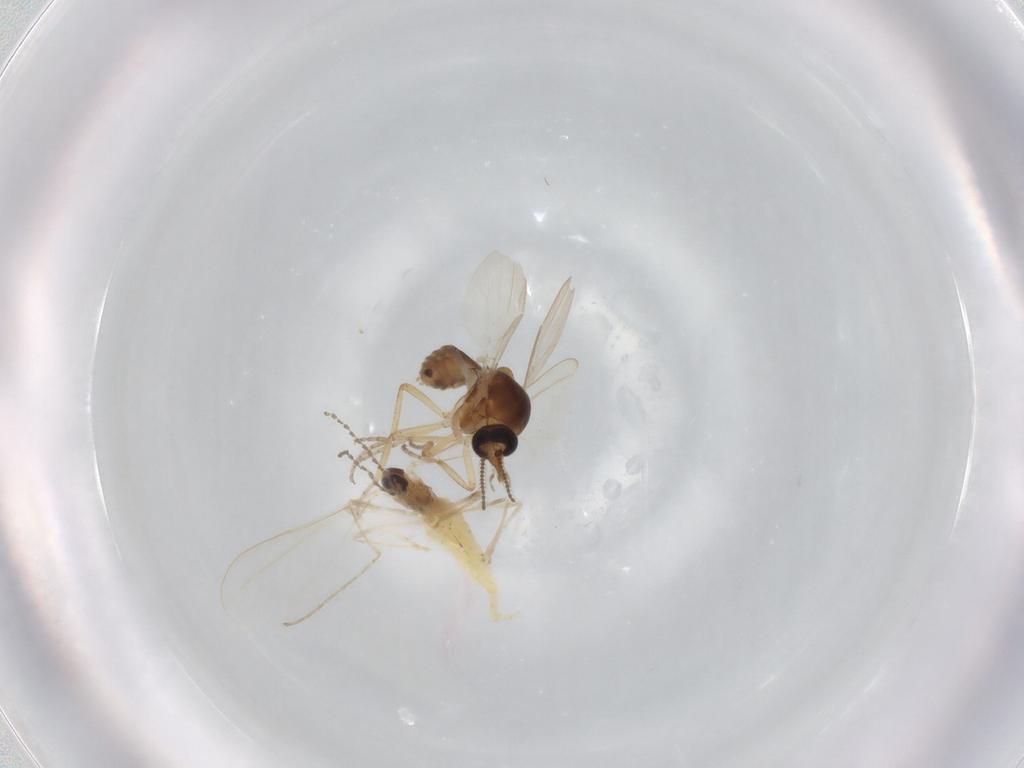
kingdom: Animalia
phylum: Arthropoda
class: Insecta
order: Diptera
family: Ceratopogonidae
